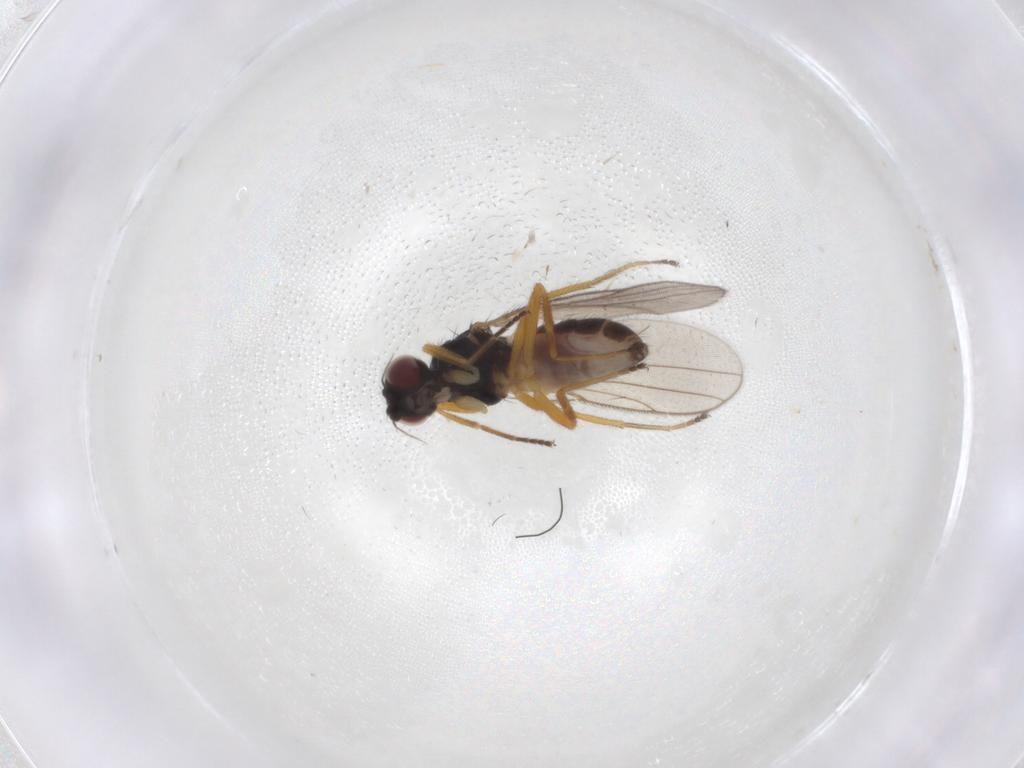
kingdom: Animalia
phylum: Arthropoda
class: Insecta
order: Diptera
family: Chloropidae
